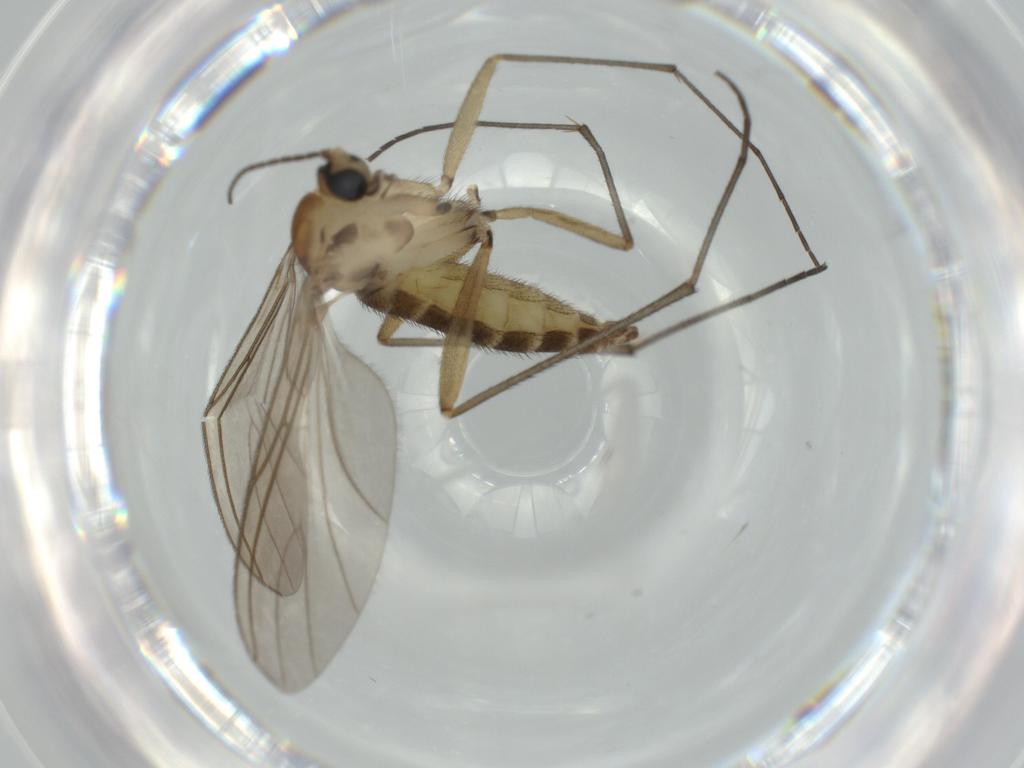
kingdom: Animalia
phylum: Arthropoda
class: Insecta
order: Diptera
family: Sciaridae
